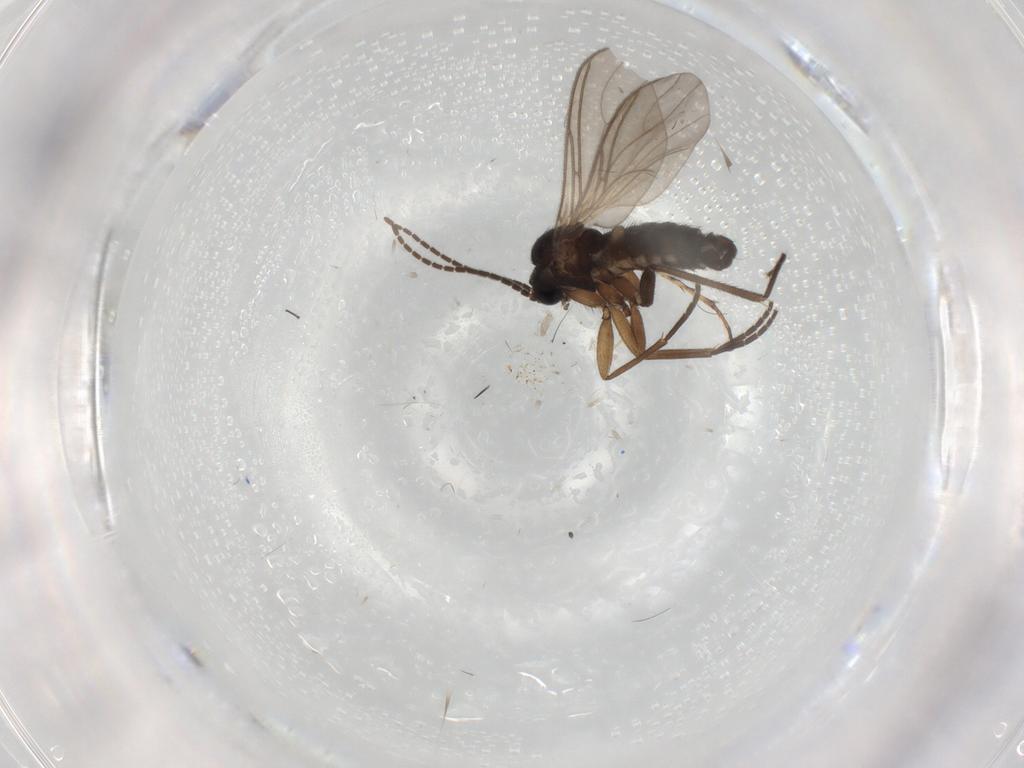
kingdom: Animalia
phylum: Arthropoda
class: Insecta
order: Diptera
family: Sciaridae
